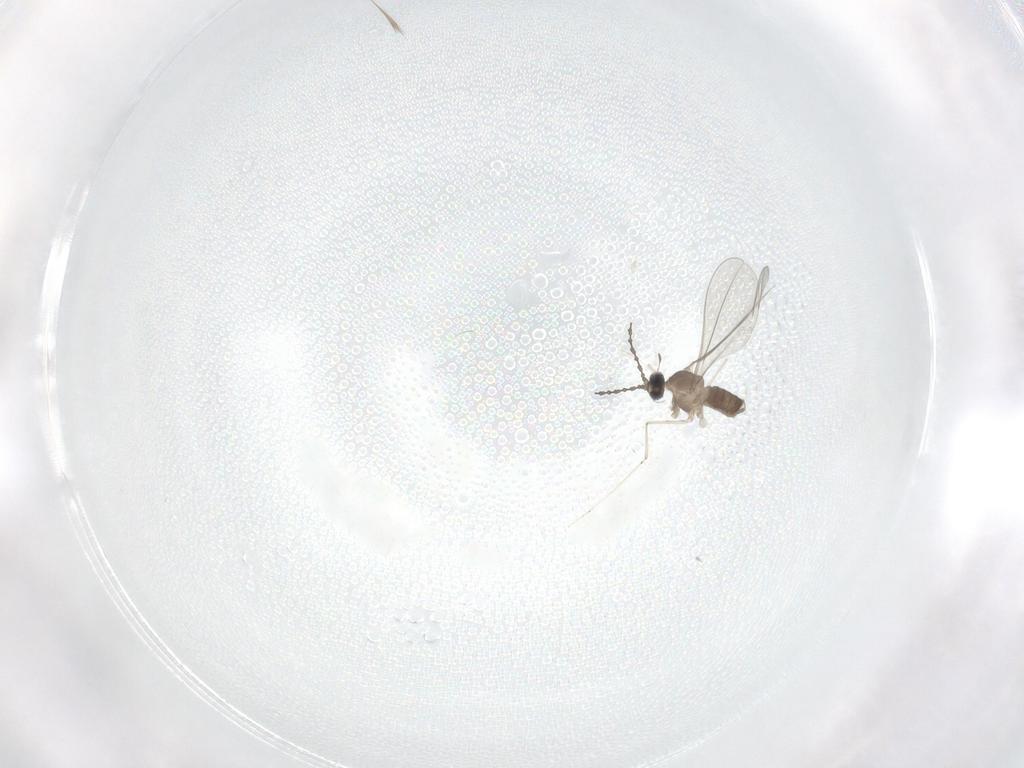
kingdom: Animalia
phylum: Arthropoda
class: Insecta
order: Diptera
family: Cecidomyiidae
